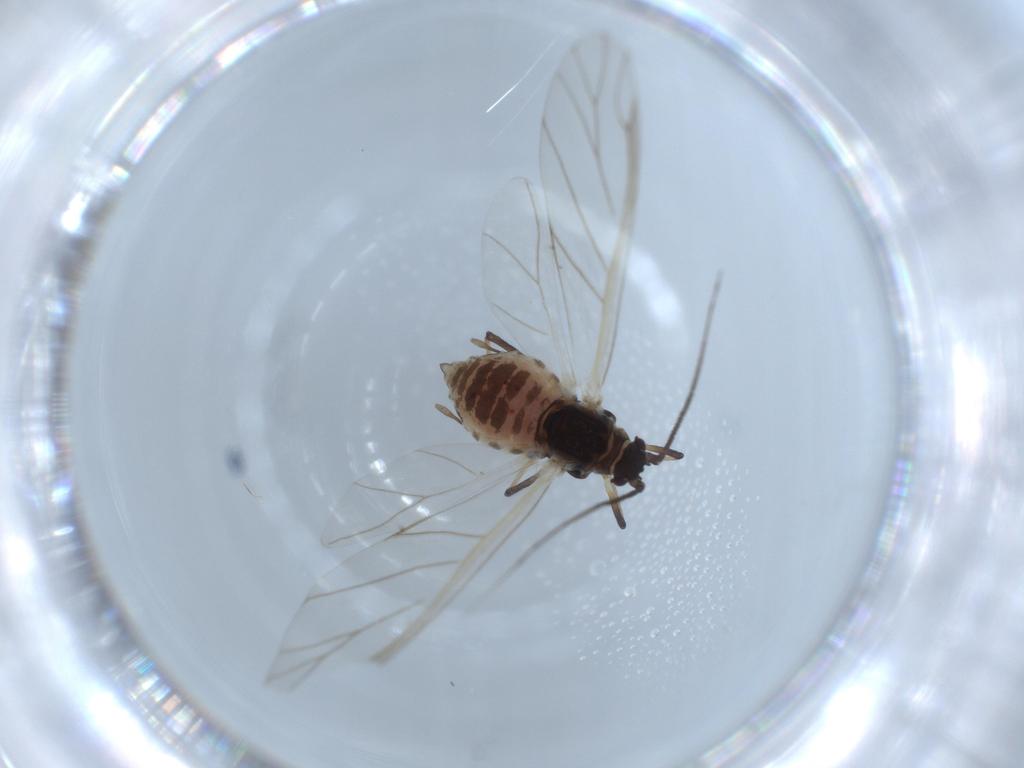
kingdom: Animalia
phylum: Arthropoda
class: Insecta
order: Hemiptera
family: Aphididae
